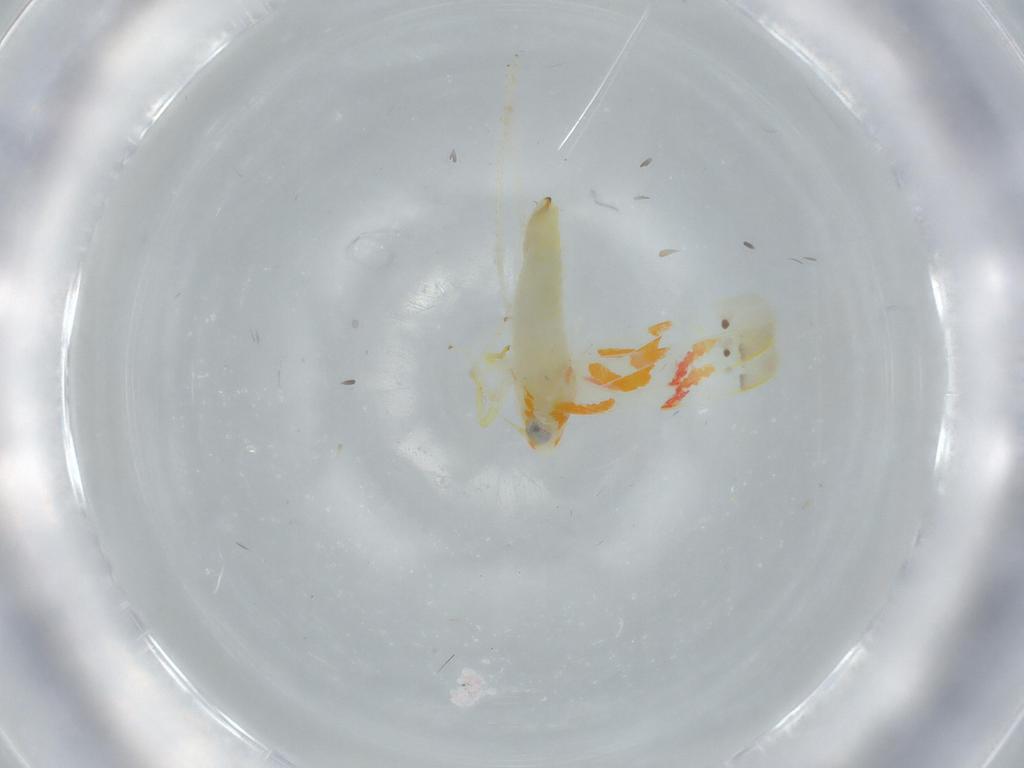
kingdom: Animalia
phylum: Arthropoda
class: Insecta
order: Hemiptera
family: Cicadellidae
